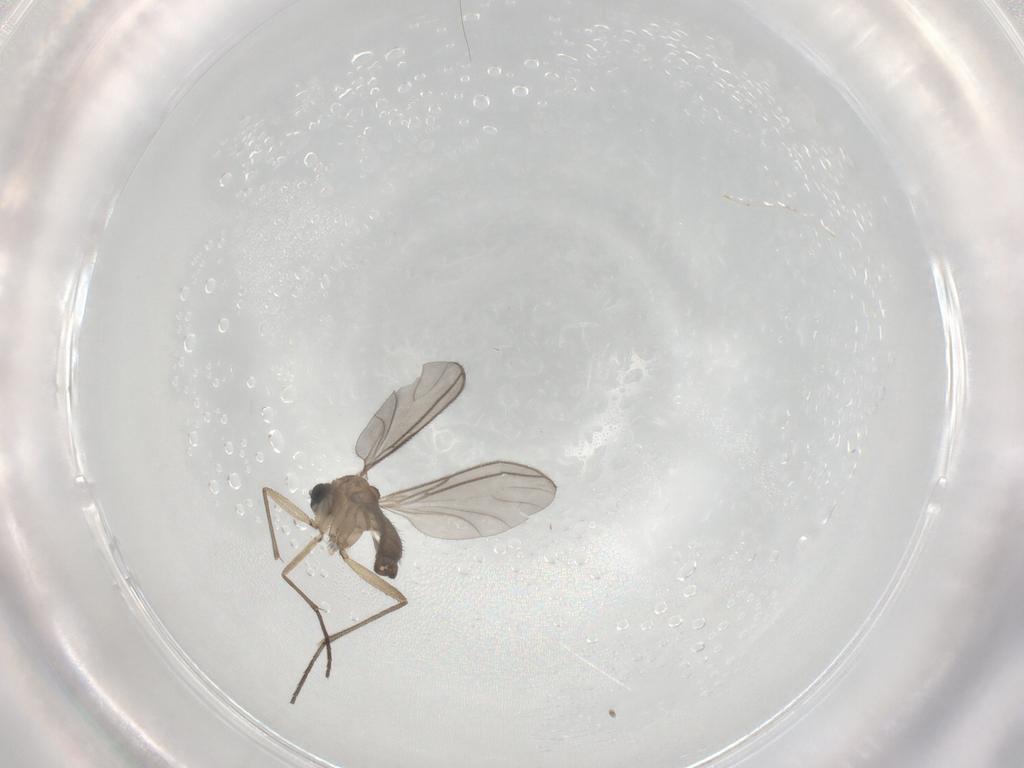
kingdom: Animalia
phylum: Arthropoda
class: Insecta
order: Diptera
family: Sciaridae
